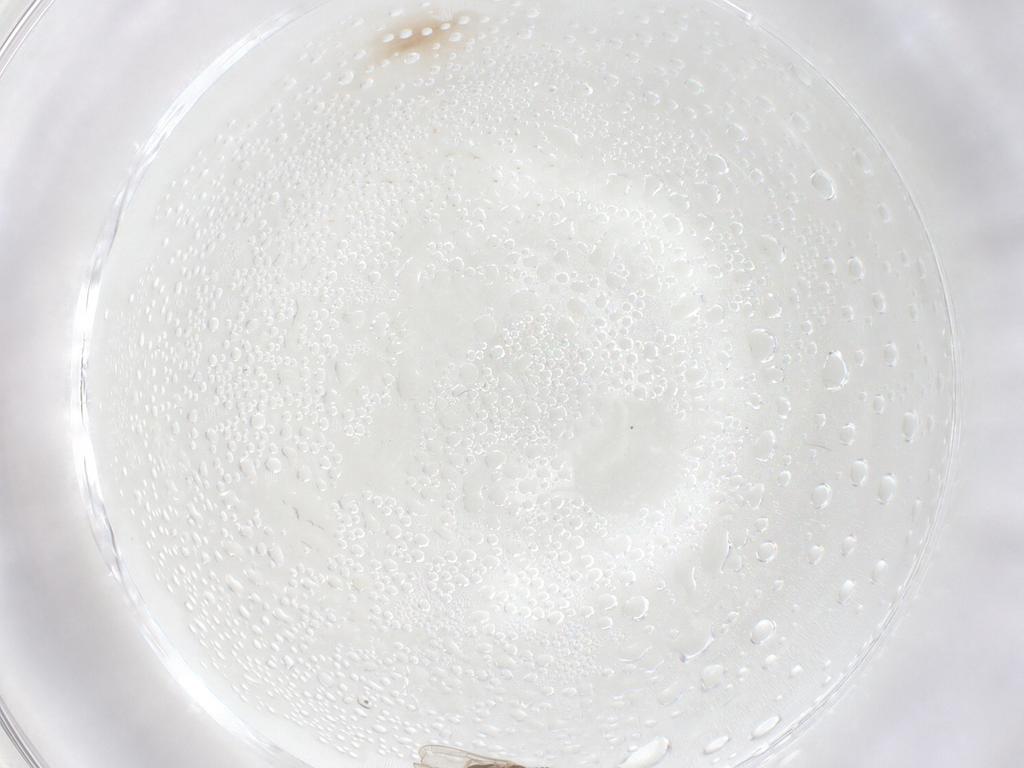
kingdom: Animalia
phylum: Arthropoda
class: Insecta
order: Diptera
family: Cecidomyiidae
